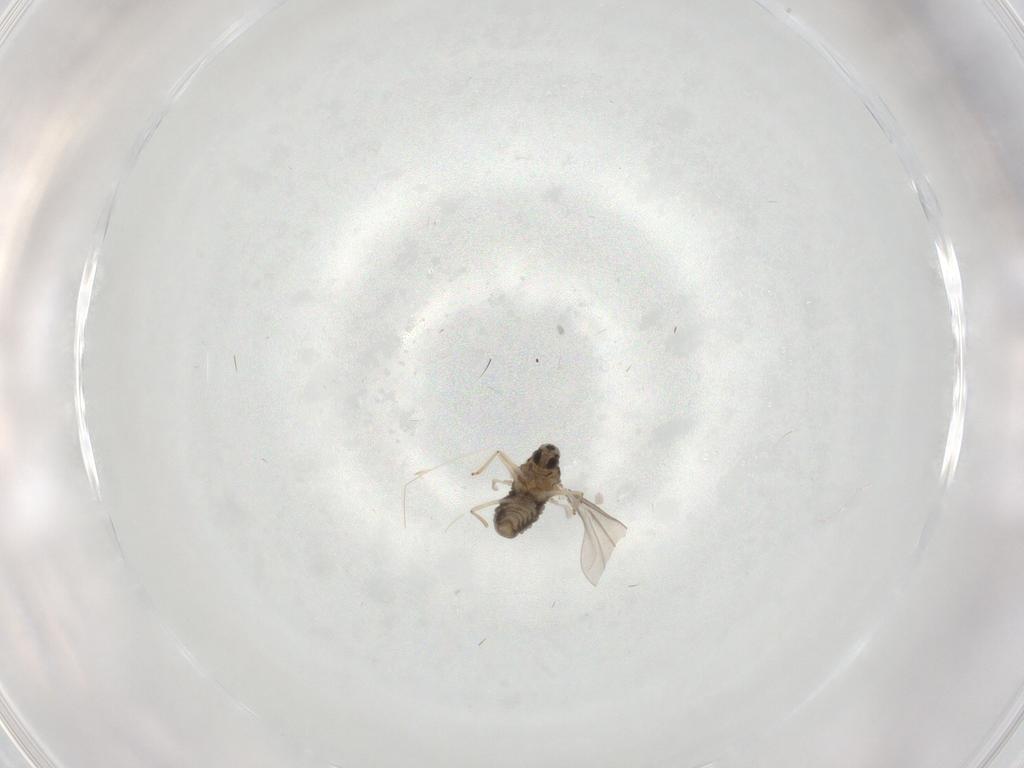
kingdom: Animalia
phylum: Arthropoda
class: Insecta
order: Diptera
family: Cecidomyiidae
